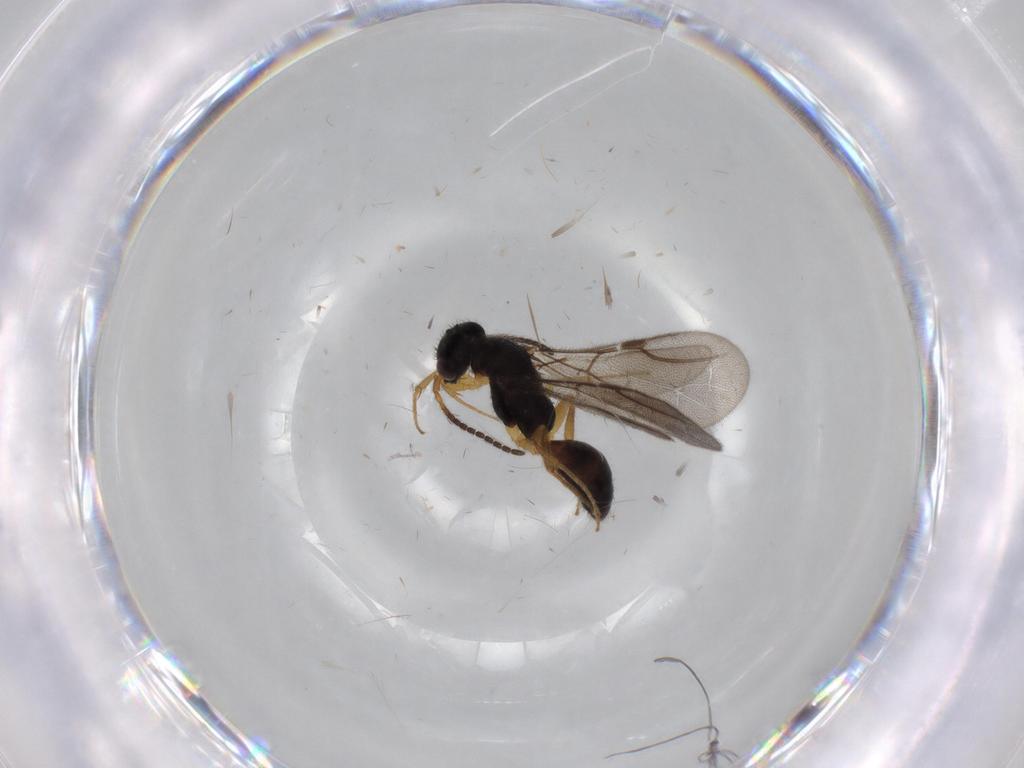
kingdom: Animalia
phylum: Arthropoda
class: Insecta
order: Hymenoptera
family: Bethylidae
